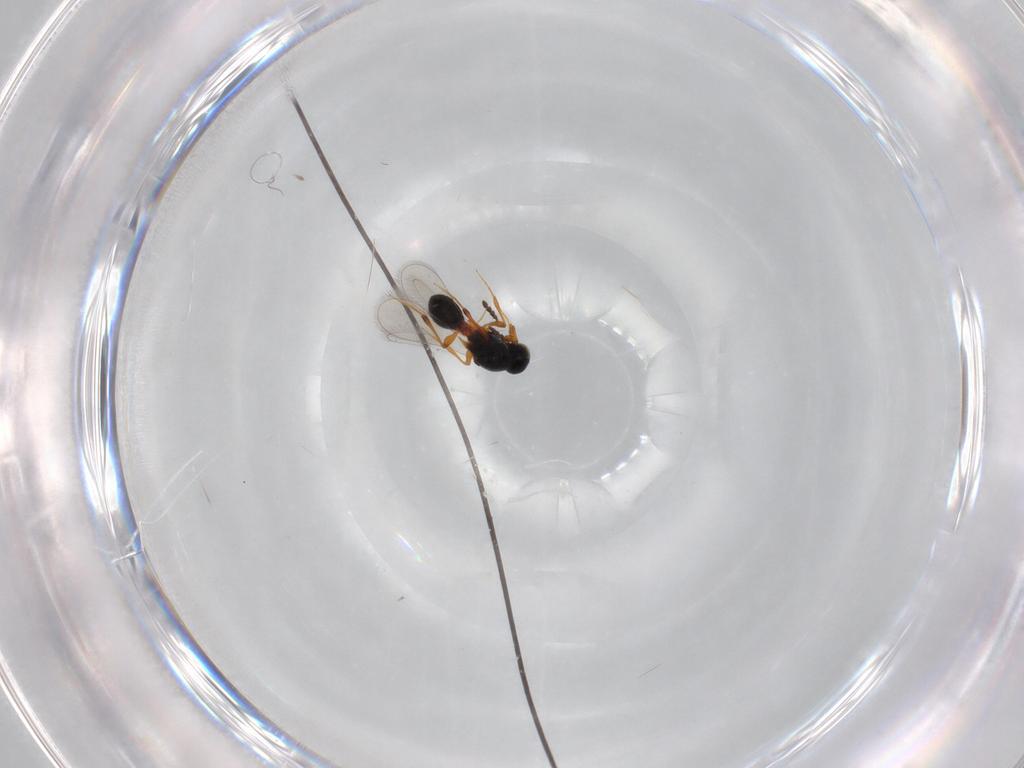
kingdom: Animalia
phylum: Arthropoda
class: Insecta
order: Hymenoptera
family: Platygastridae
